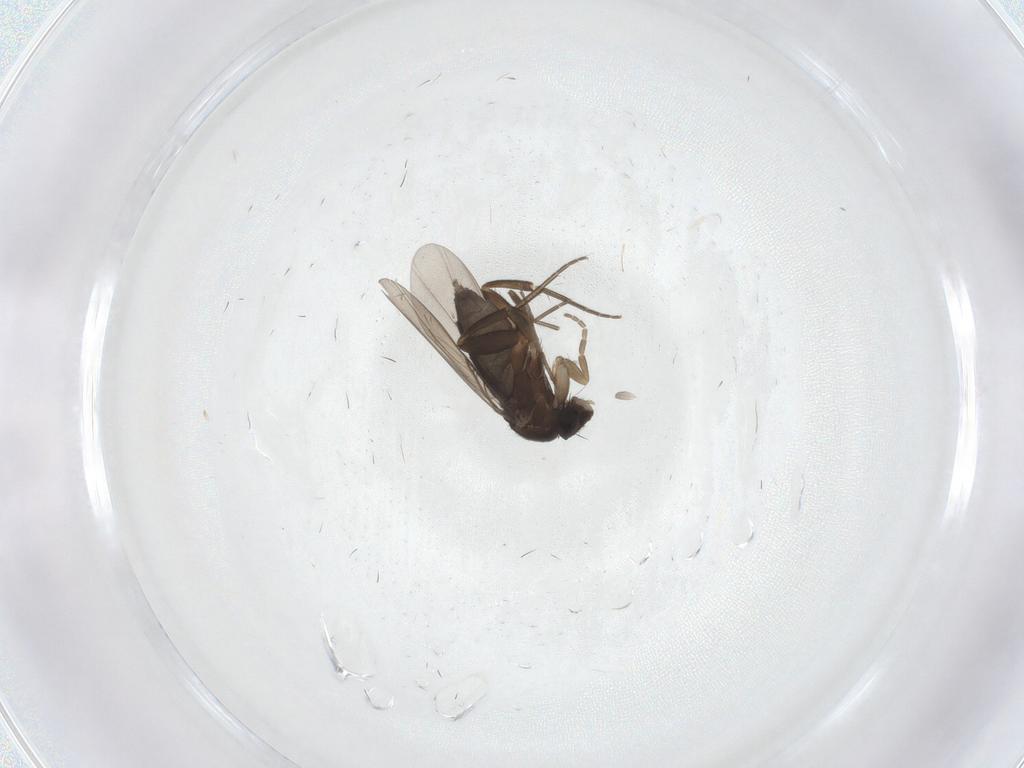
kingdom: Animalia
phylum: Arthropoda
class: Insecta
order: Diptera
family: Phoridae
